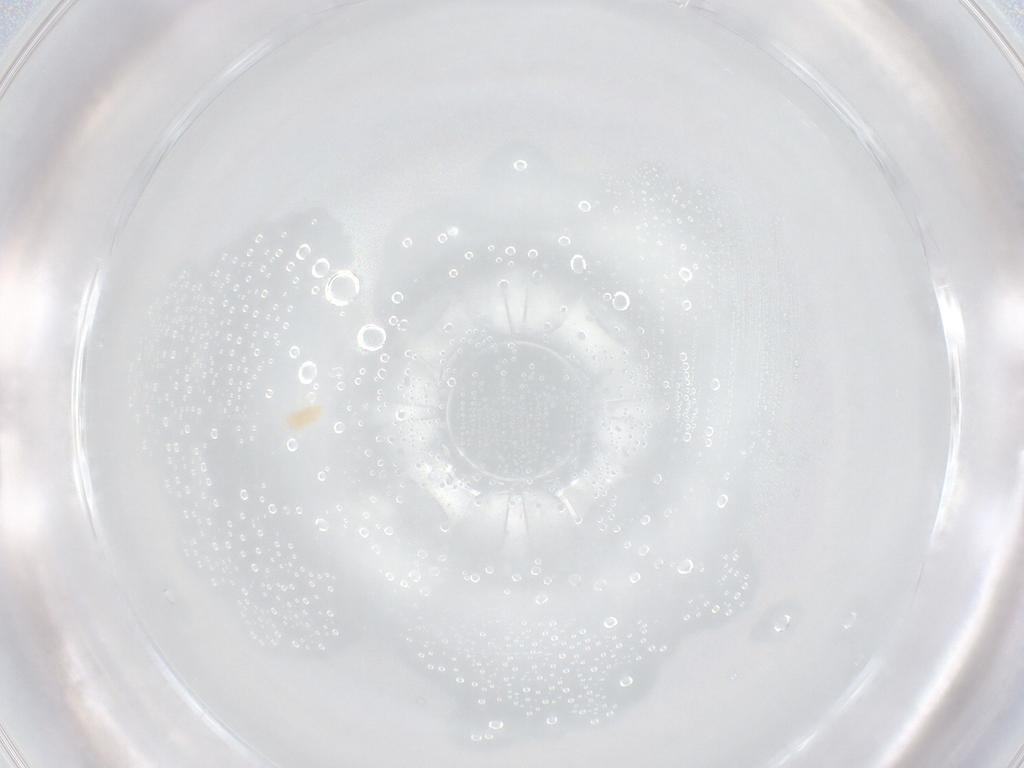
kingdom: Animalia
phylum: Arthropoda
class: Arachnida
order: Trombidiformes
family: Eupodidae
